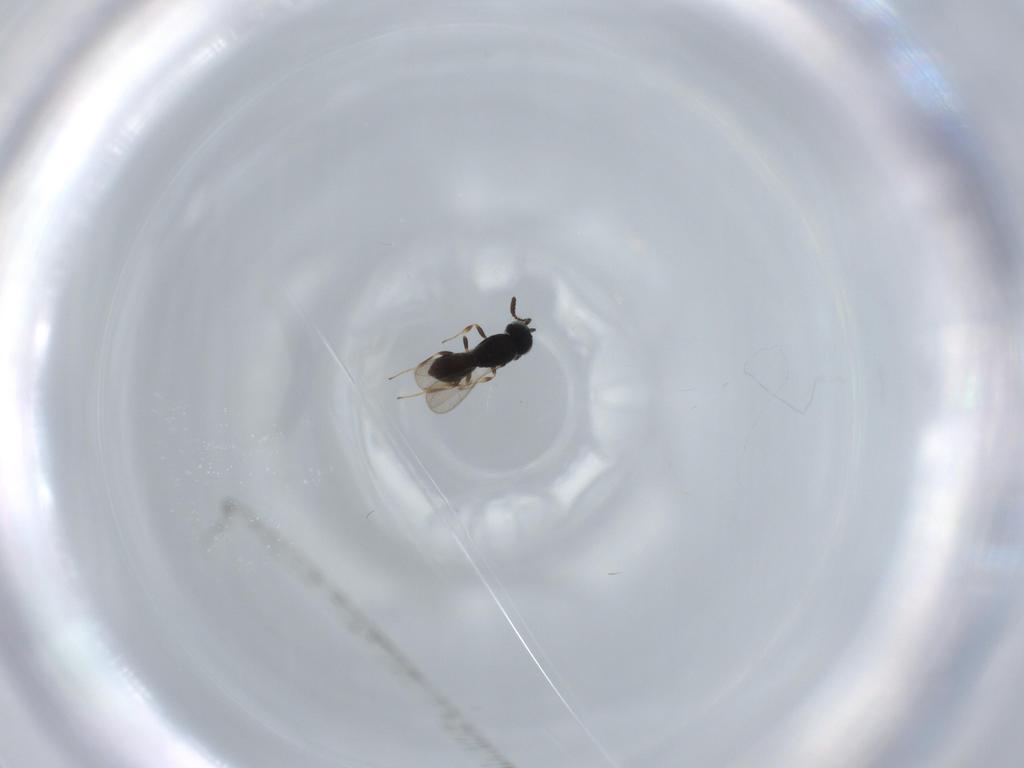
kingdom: Animalia
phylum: Arthropoda
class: Insecta
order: Hymenoptera
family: Scelionidae
